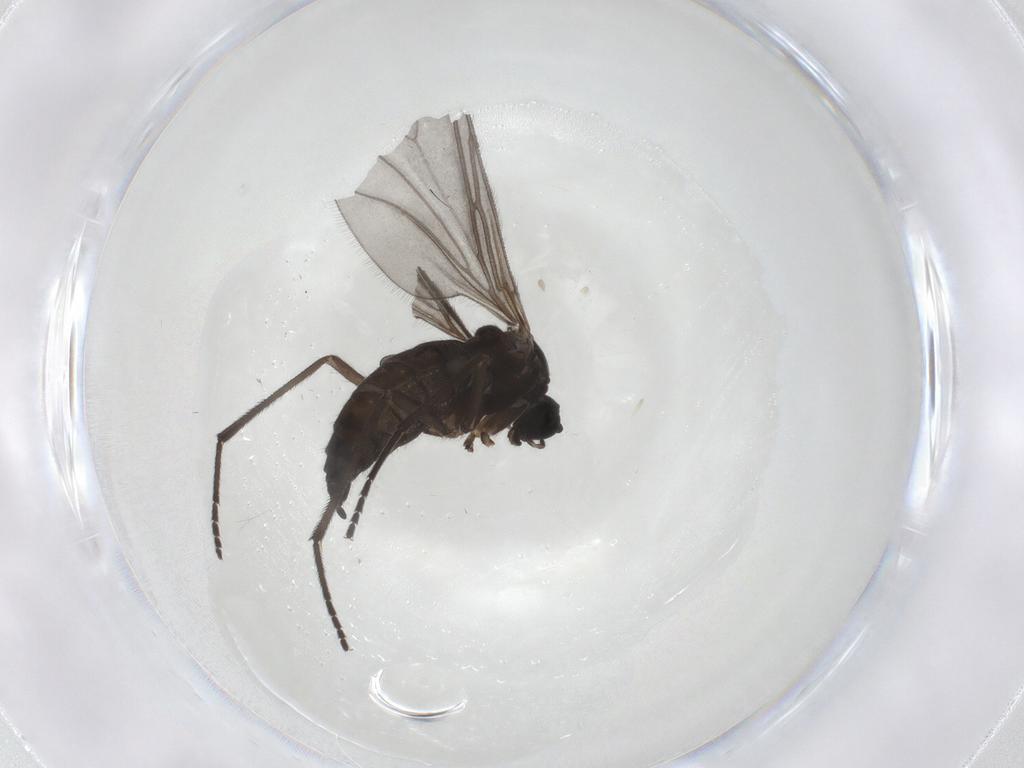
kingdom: Animalia
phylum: Arthropoda
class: Insecta
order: Diptera
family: Sciaridae
